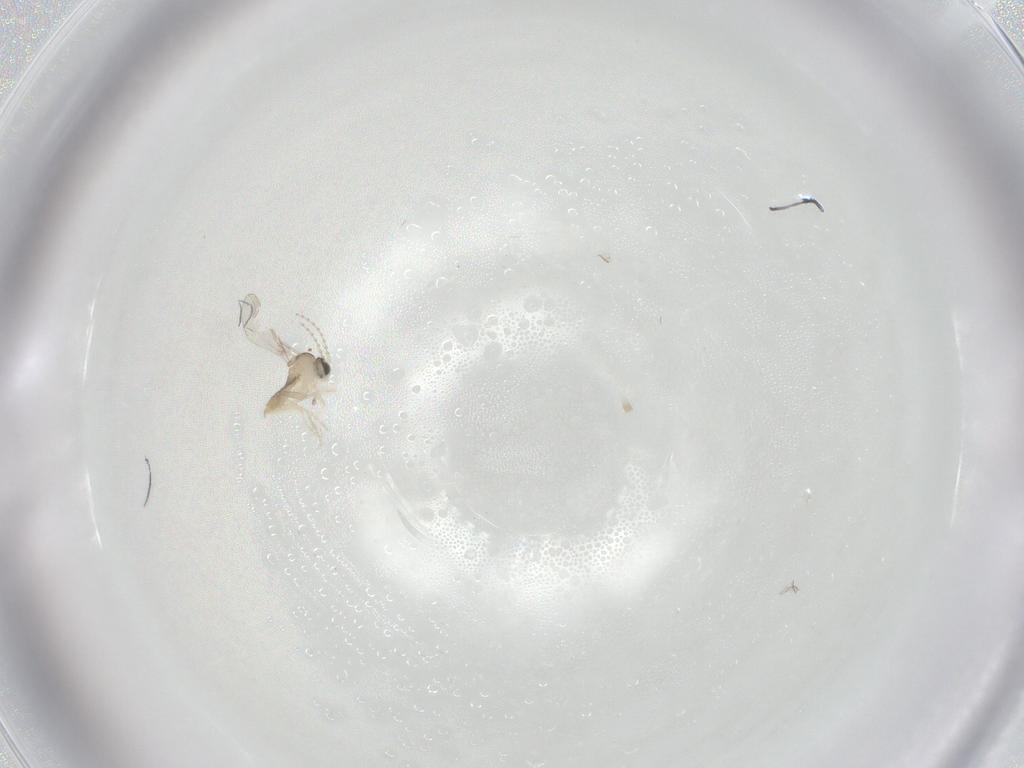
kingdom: Animalia
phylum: Arthropoda
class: Insecta
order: Diptera
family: Cecidomyiidae
